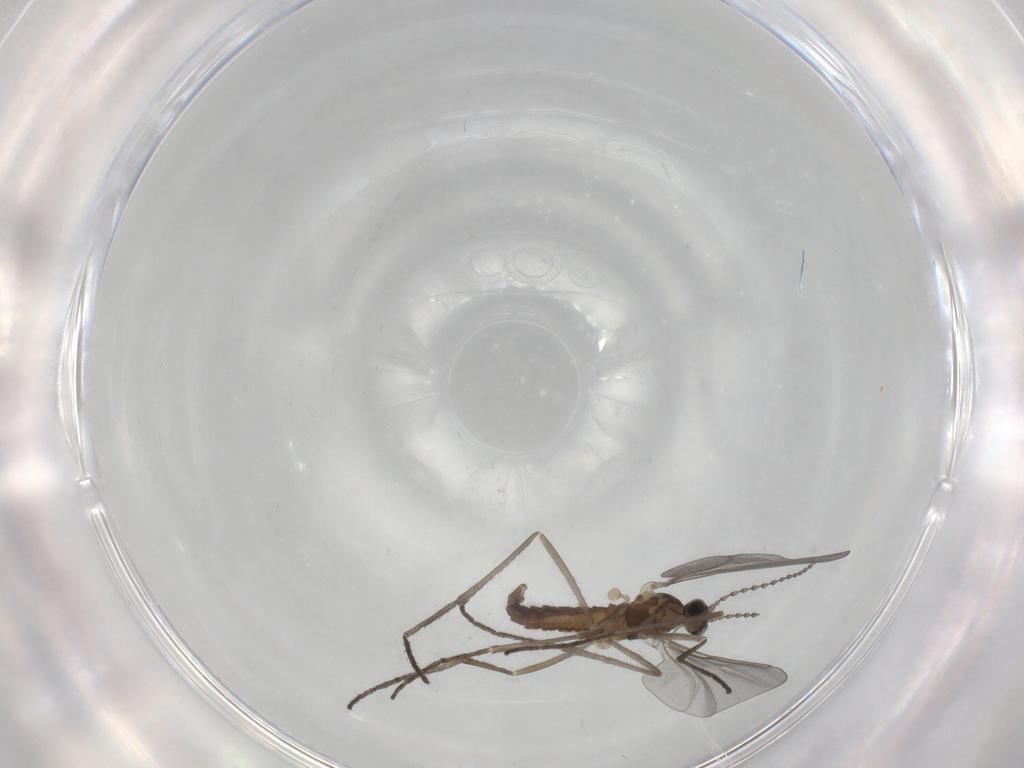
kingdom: Animalia
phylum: Arthropoda
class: Insecta
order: Diptera
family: Cecidomyiidae
